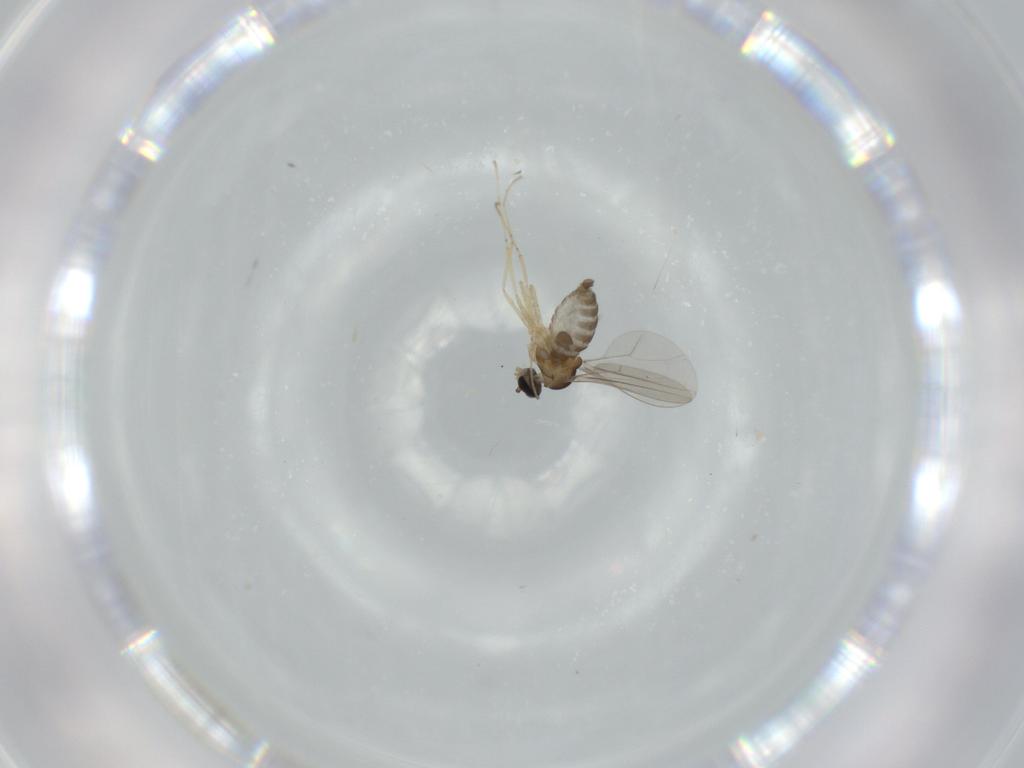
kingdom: Animalia
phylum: Arthropoda
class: Insecta
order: Diptera
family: Cecidomyiidae
